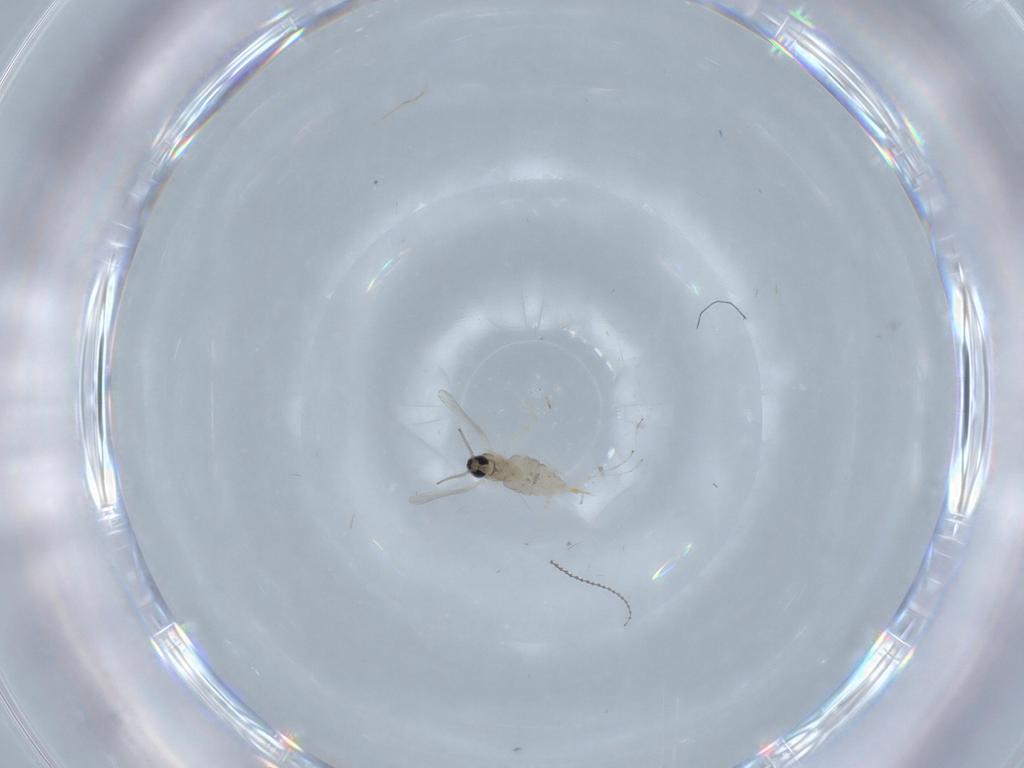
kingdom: Animalia
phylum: Arthropoda
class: Insecta
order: Diptera
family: Cecidomyiidae
